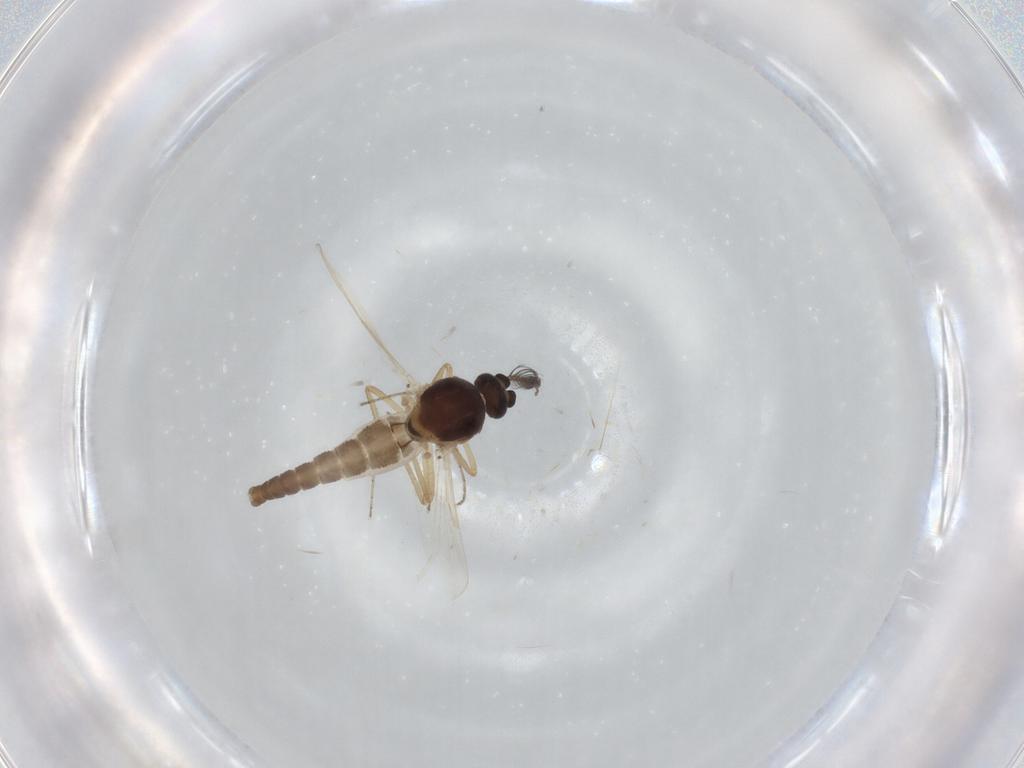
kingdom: Animalia
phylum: Arthropoda
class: Insecta
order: Diptera
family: Ceratopogonidae
